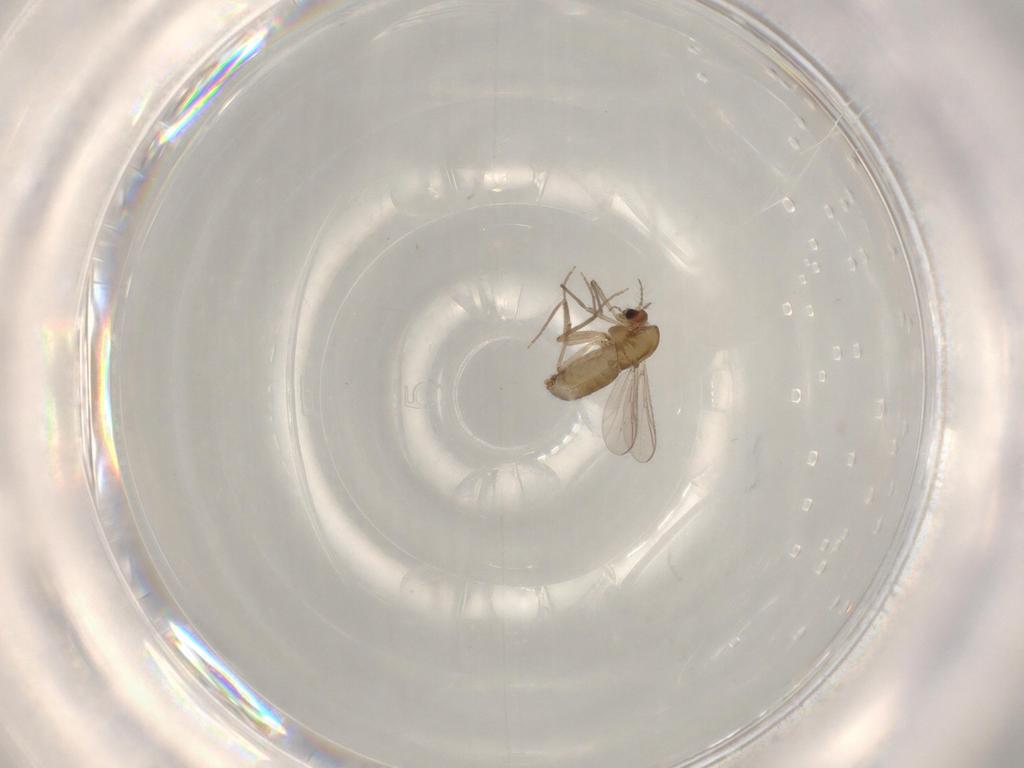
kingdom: Animalia
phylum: Arthropoda
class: Insecta
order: Diptera
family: Chironomidae
